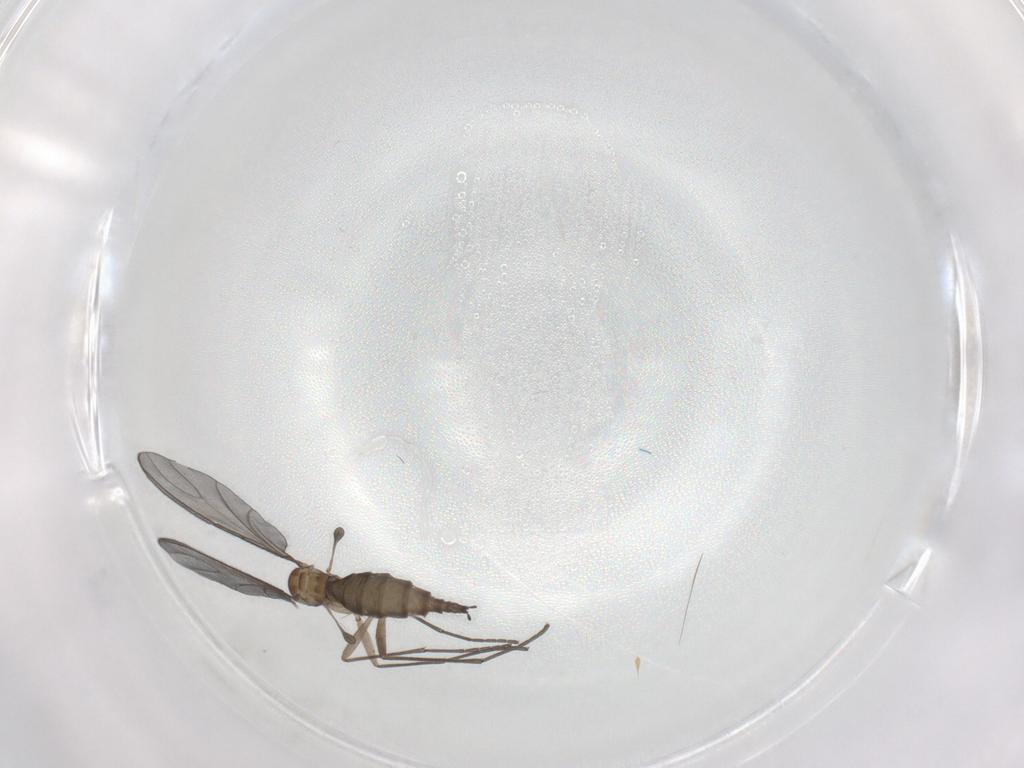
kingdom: Animalia
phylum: Arthropoda
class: Insecta
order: Diptera
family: Sciaridae
